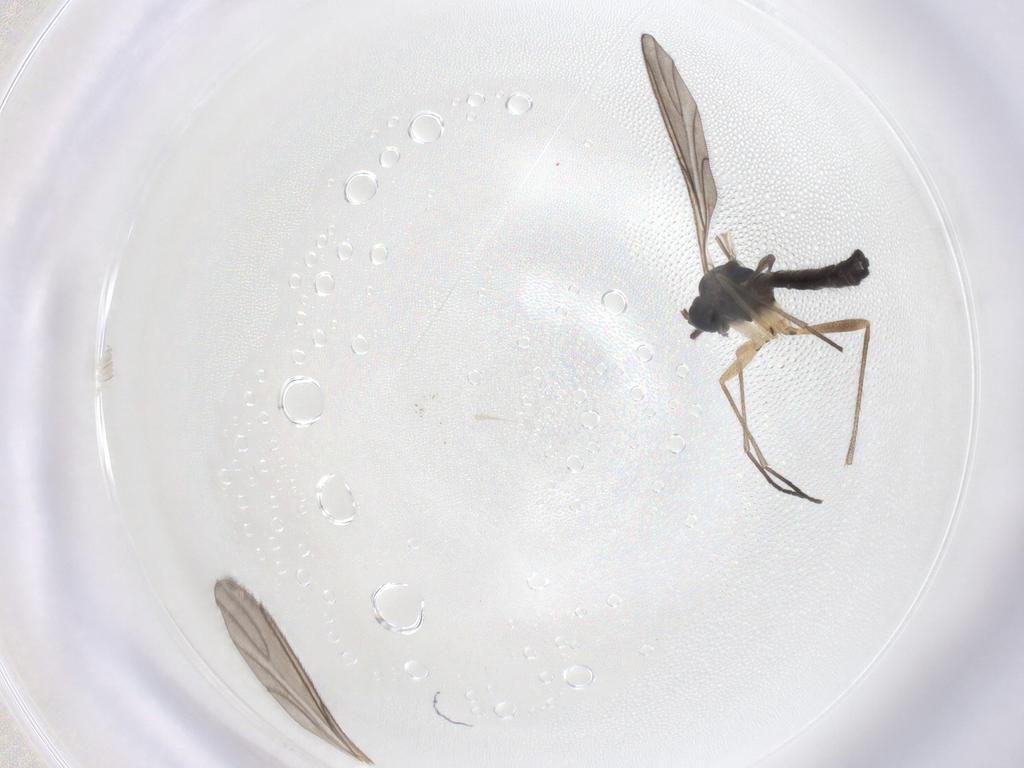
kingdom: Animalia
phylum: Arthropoda
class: Insecta
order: Diptera
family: Sciaridae
